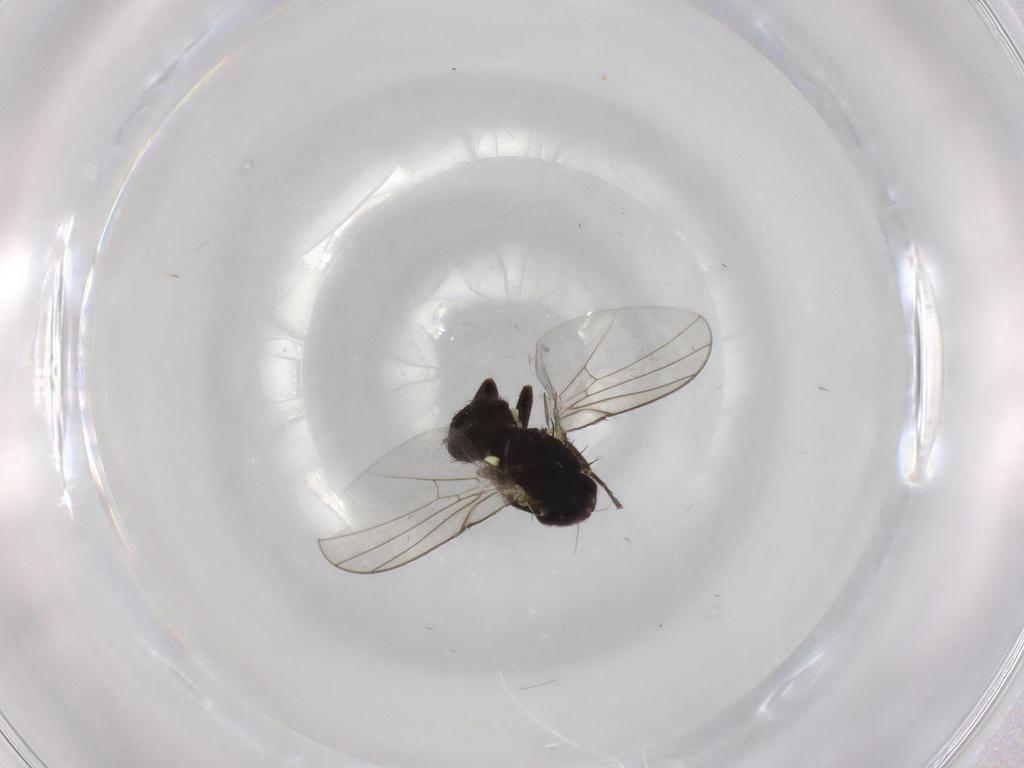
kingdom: Animalia
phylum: Arthropoda
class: Insecta
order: Diptera
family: Agromyzidae
